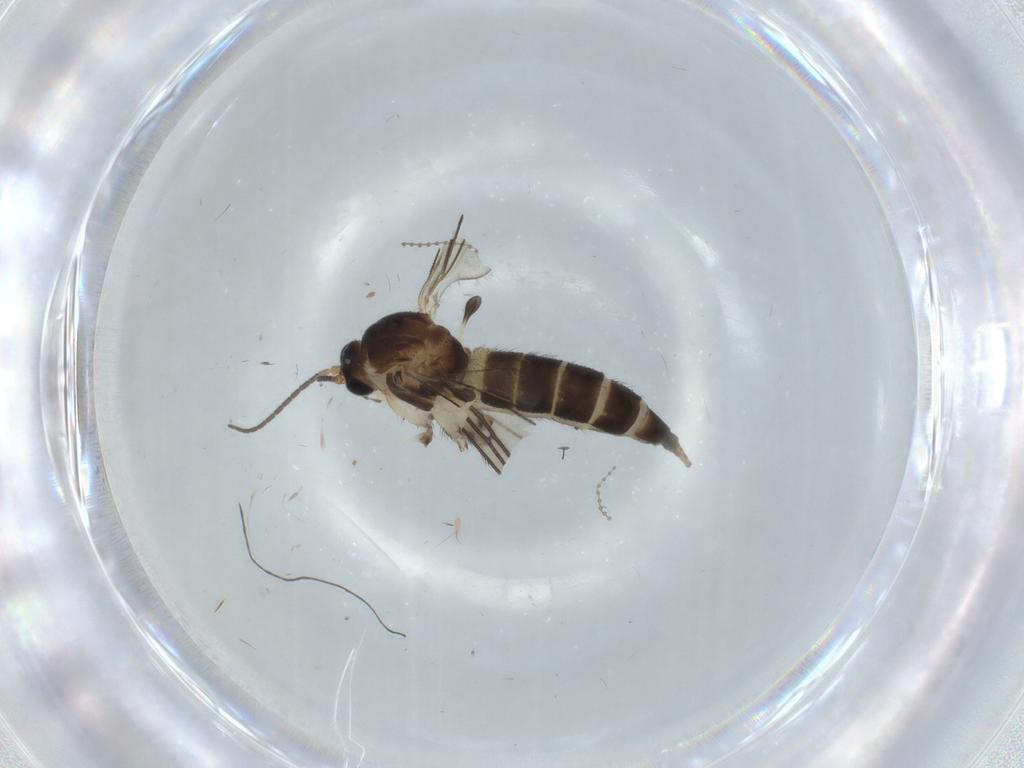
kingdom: Animalia
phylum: Arthropoda
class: Insecta
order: Diptera
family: Cecidomyiidae
